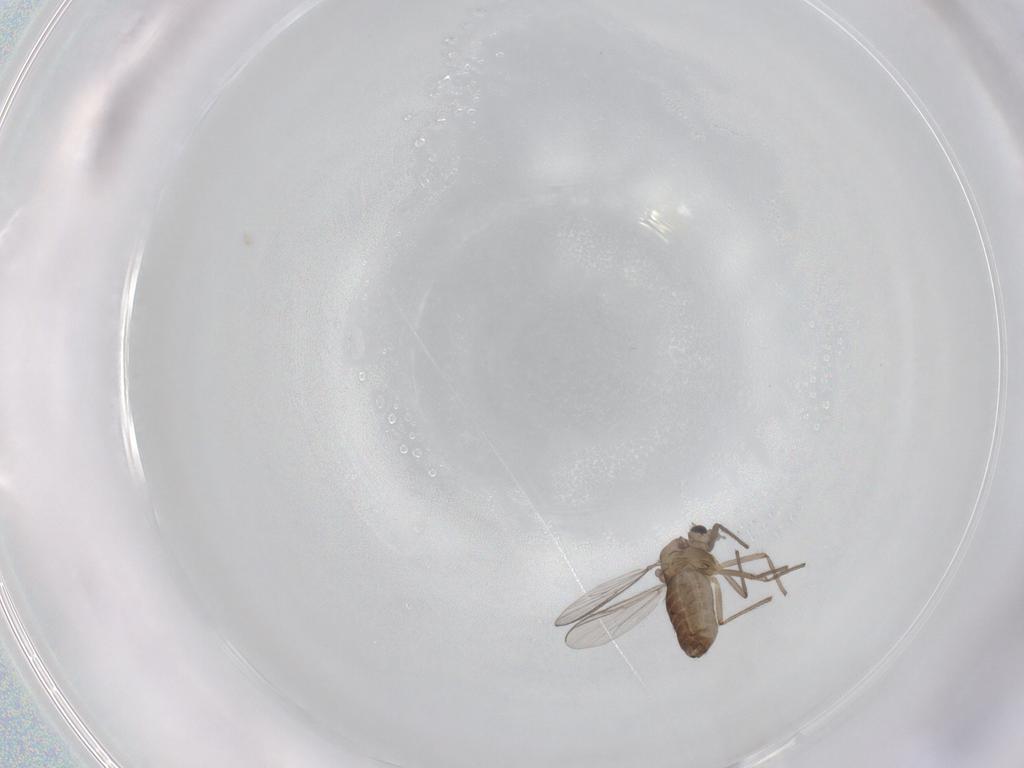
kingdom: Animalia
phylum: Arthropoda
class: Insecta
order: Diptera
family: Chironomidae
